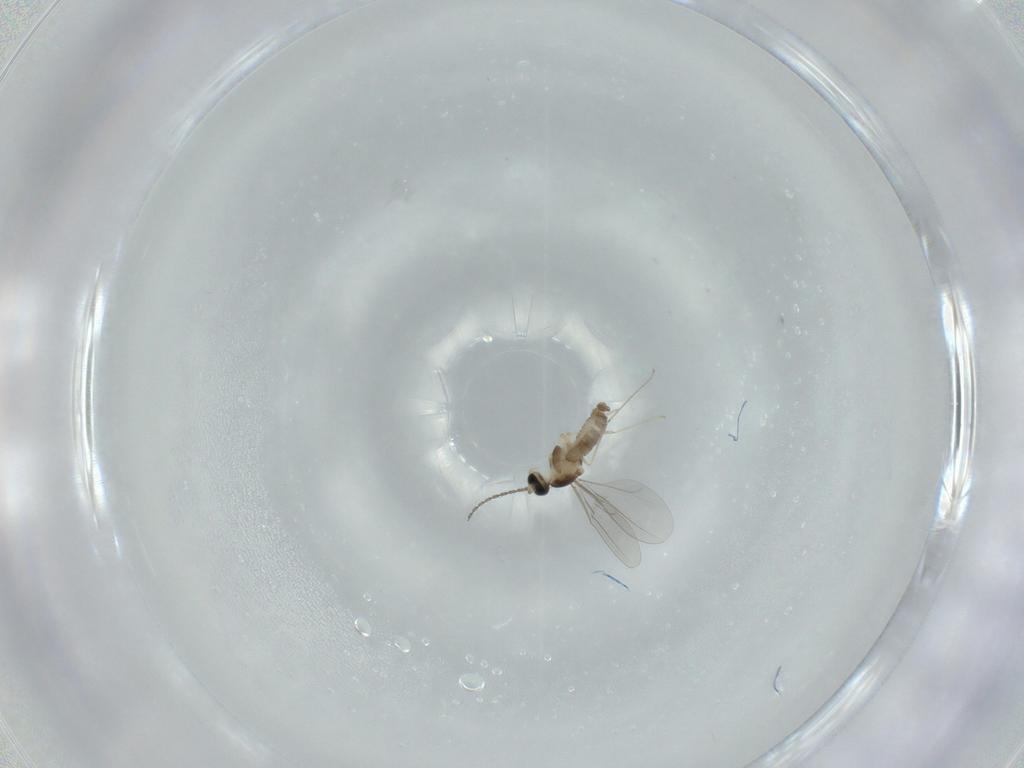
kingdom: Animalia
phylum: Arthropoda
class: Insecta
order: Diptera
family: Cecidomyiidae
